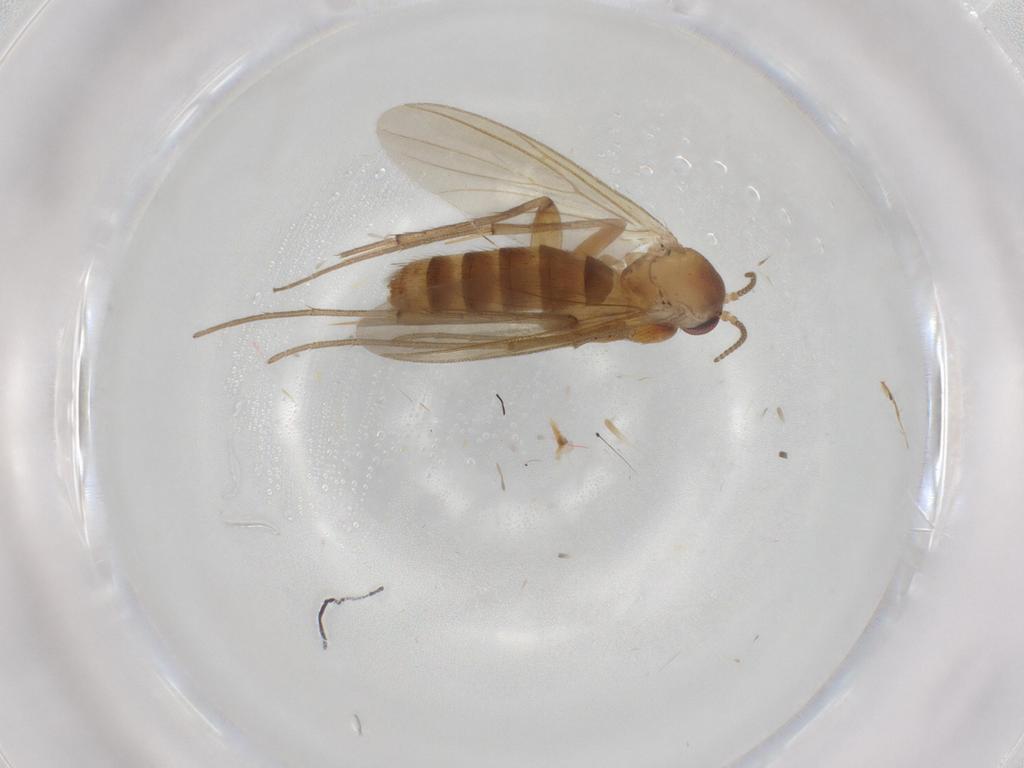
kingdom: Animalia
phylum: Arthropoda
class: Insecta
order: Diptera
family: Mycetophilidae
